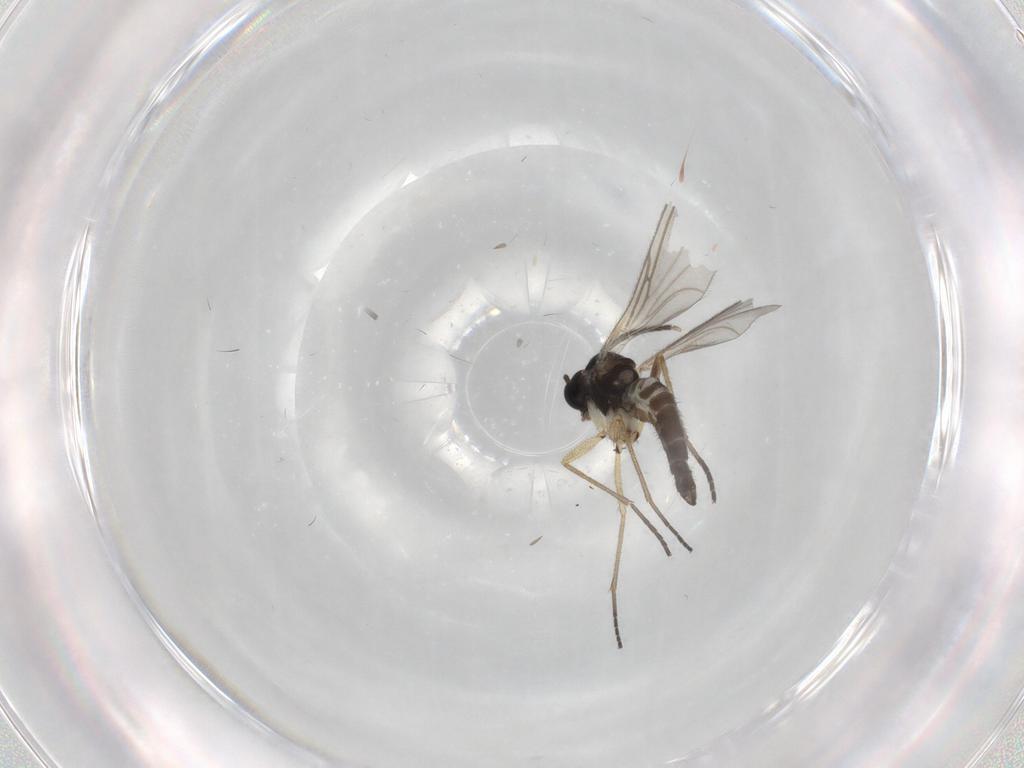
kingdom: Animalia
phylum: Arthropoda
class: Insecta
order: Diptera
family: Sciaridae
